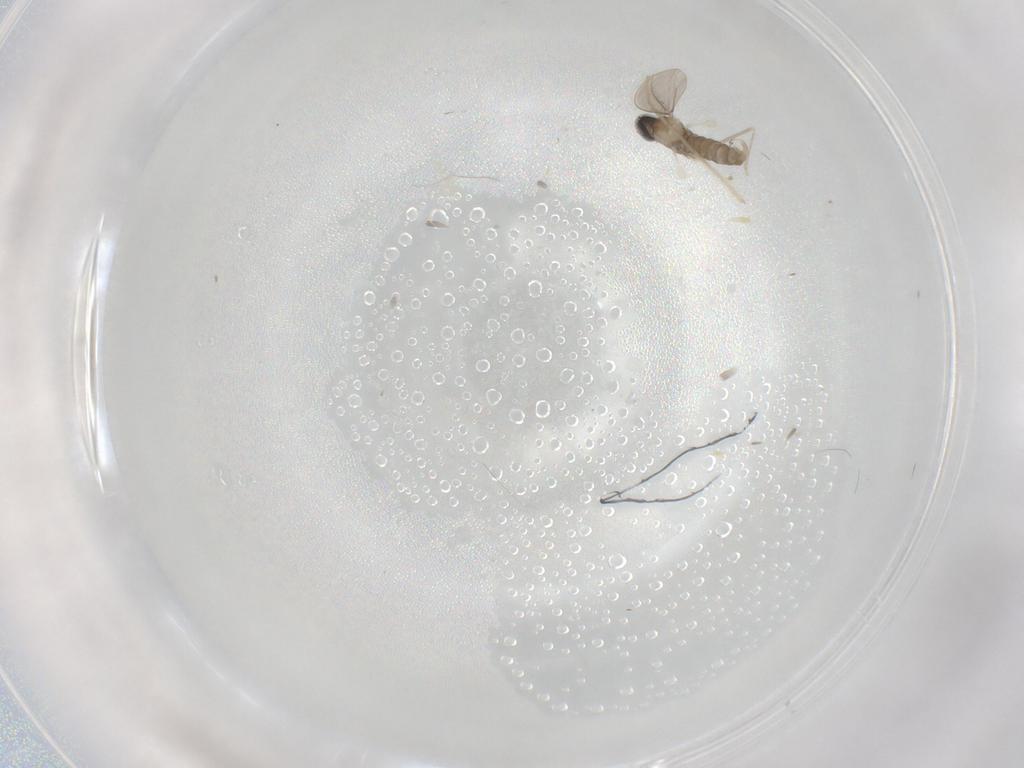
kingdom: Animalia
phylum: Arthropoda
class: Insecta
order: Diptera
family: Cecidomyiidae
